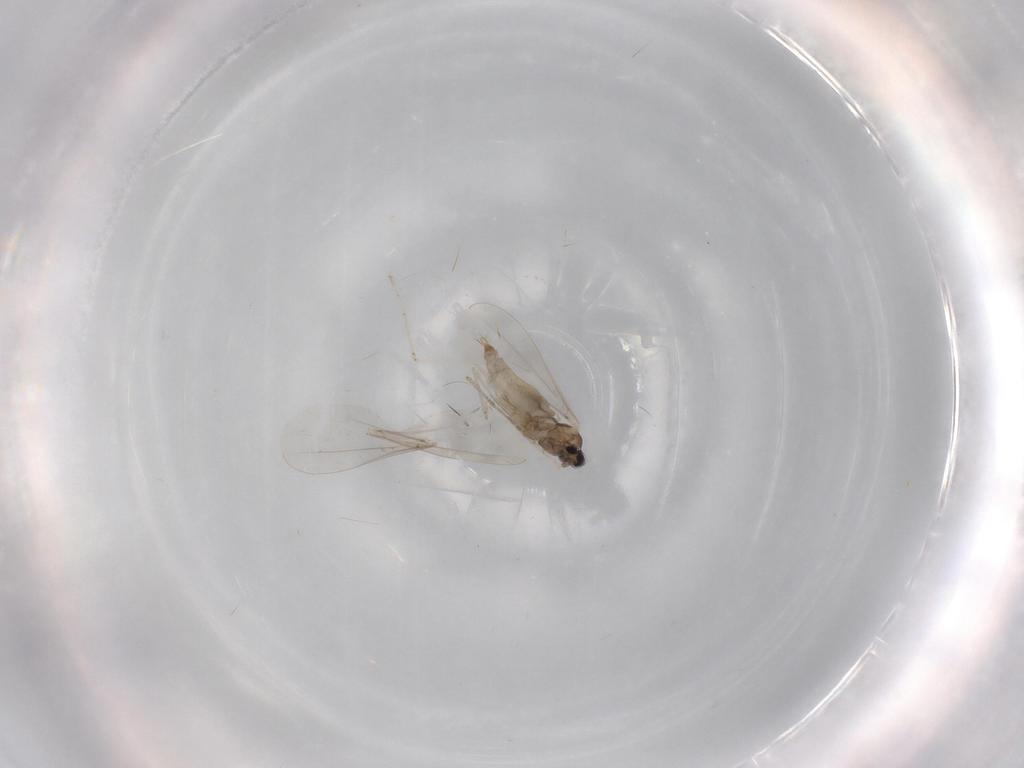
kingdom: Animalia
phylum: Arthropoda
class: Insecta
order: Diptera
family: Cecidomyiidae
